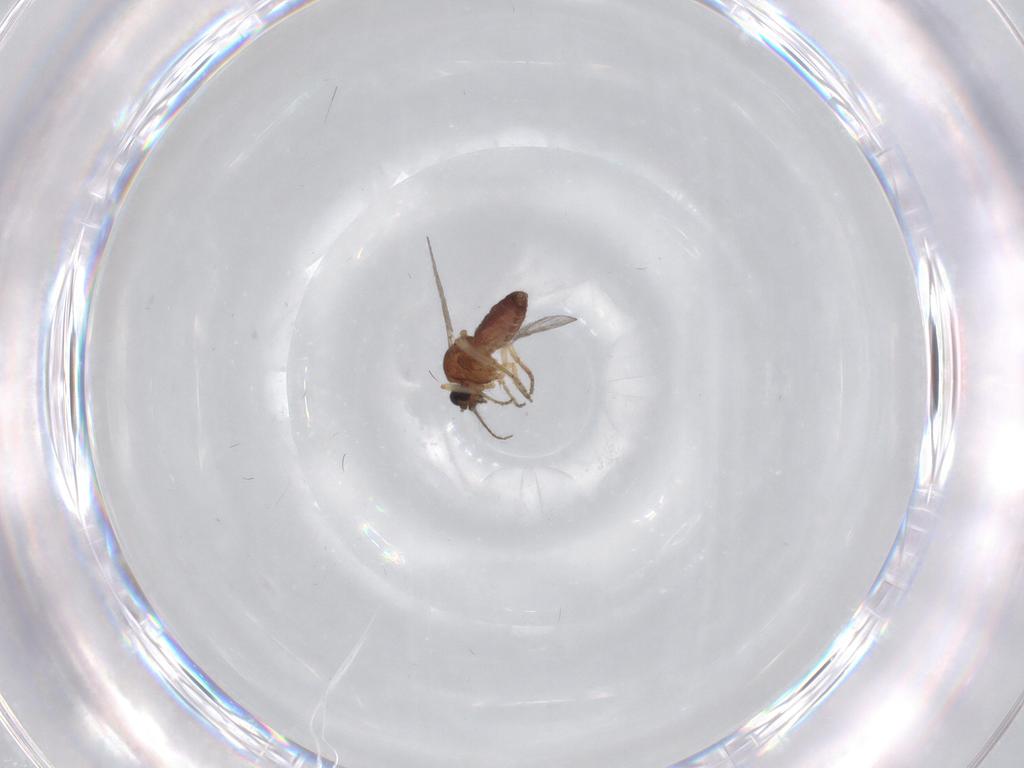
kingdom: Animalia
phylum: Arthropoda
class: Insecta
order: Diptera
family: Ceratopogonidae
